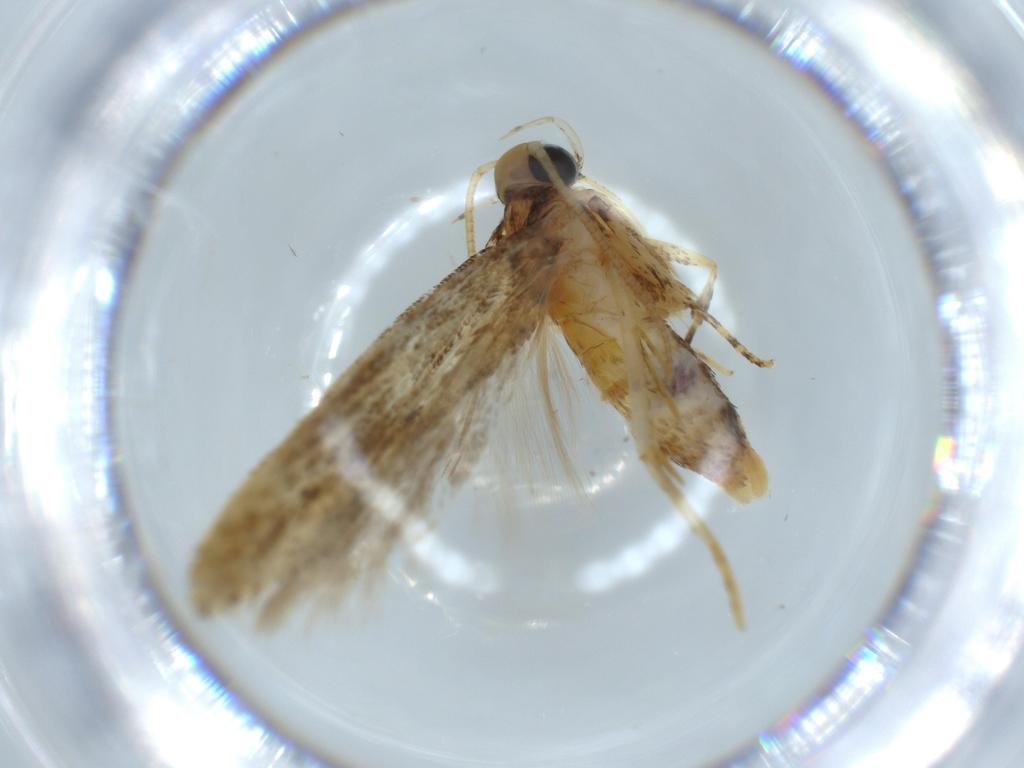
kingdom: Animalia
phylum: Arthropoda
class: Insecta
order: Lepidoptera
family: Gelechiidae
